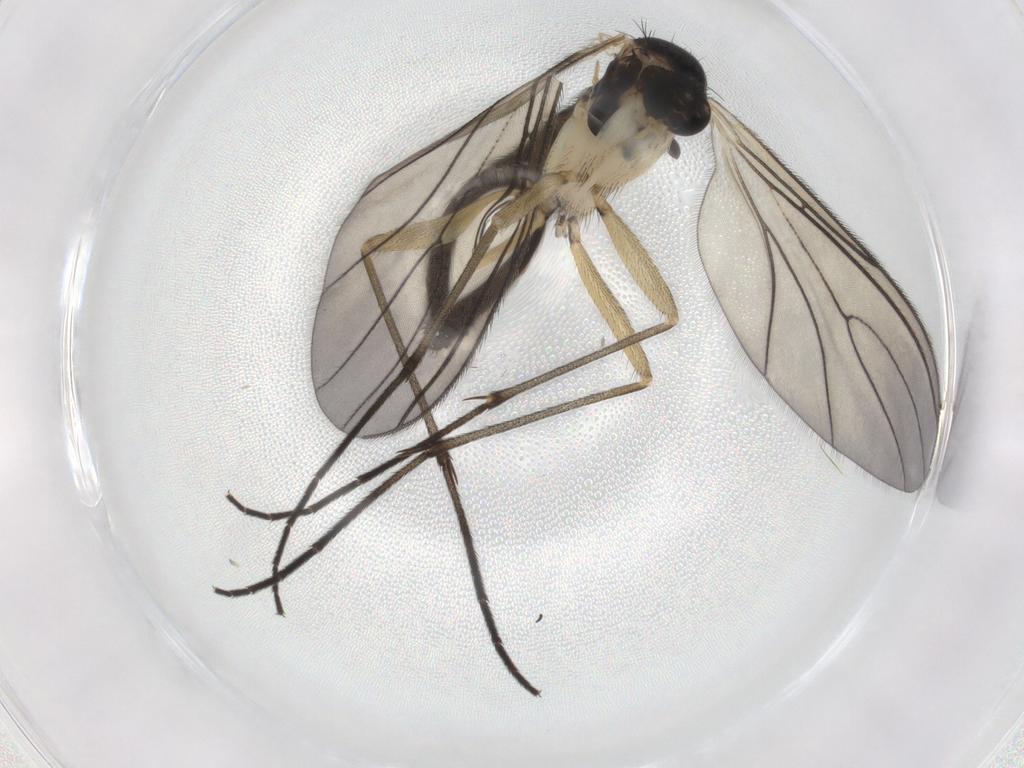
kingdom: Animalia
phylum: Arthropoda
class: Insecta
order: Diptera
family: Sciaridae
